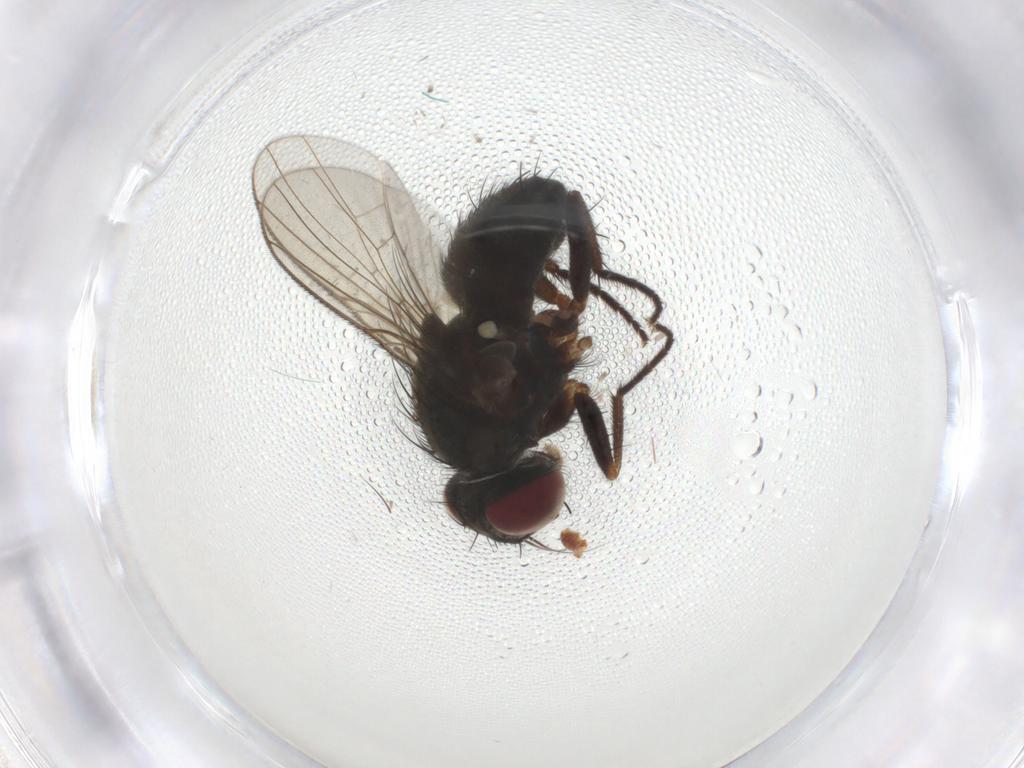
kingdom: Animalia
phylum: Arthropoda
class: Insecta
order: Diptera
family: Muscidae
